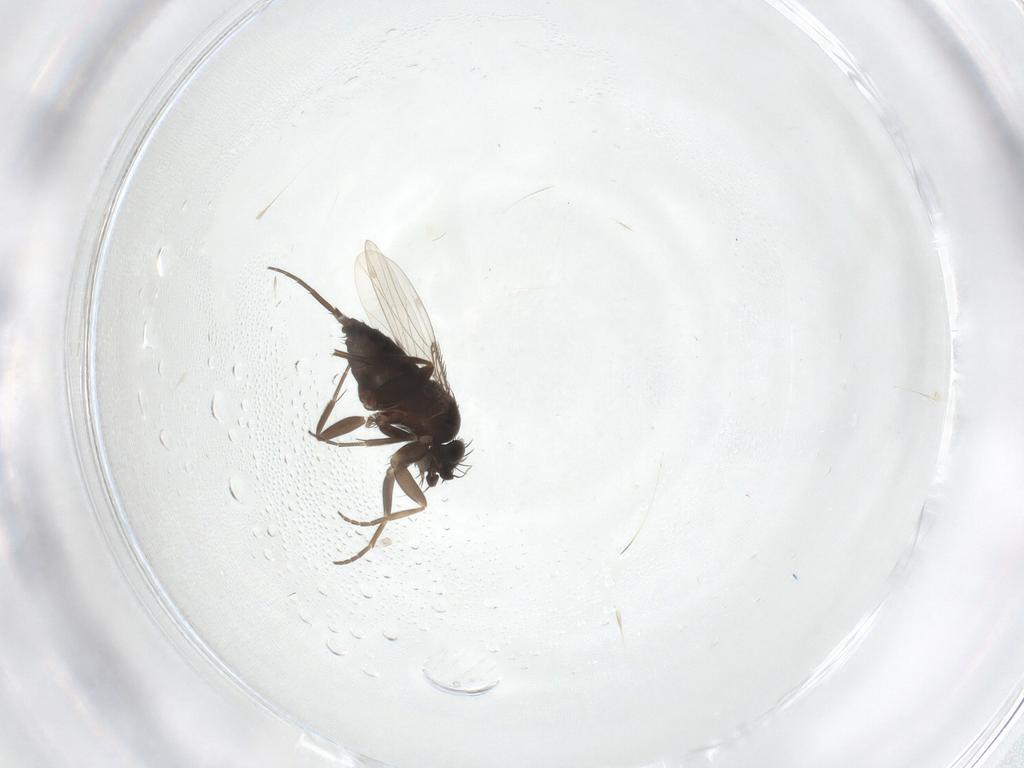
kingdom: Animalia
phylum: Arthropoda
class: Insecta
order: Diptera
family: Phoridae
